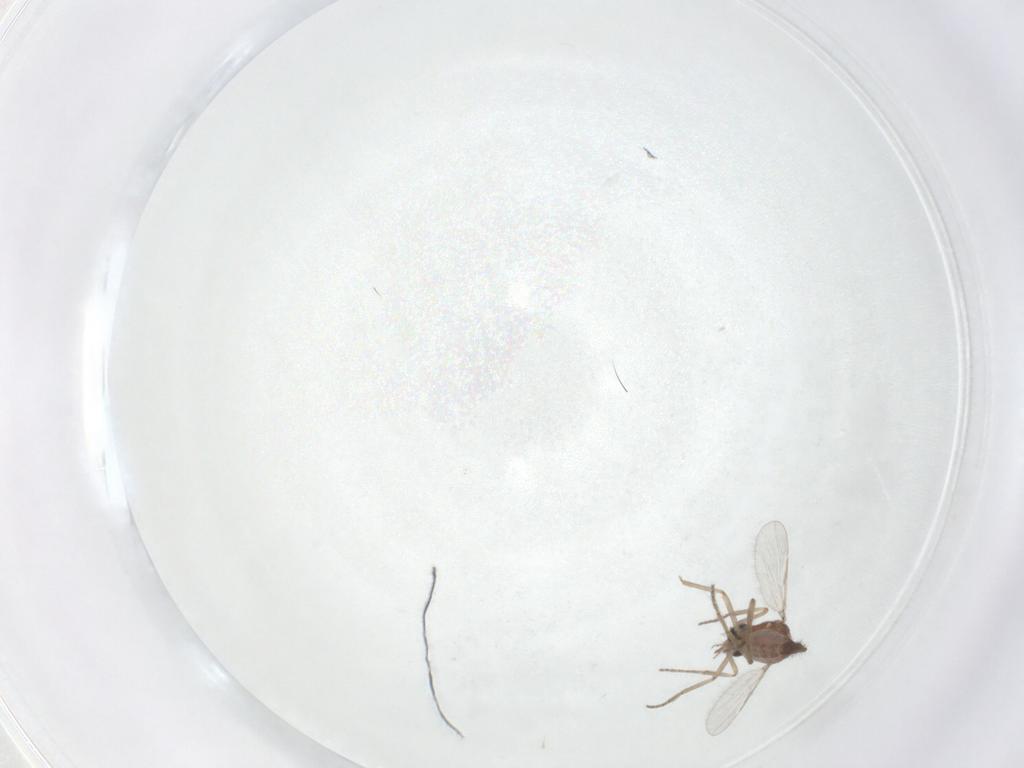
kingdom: Animalia
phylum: Arthropoda
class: Insecta
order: Diptera
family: Ceratopogonidae
